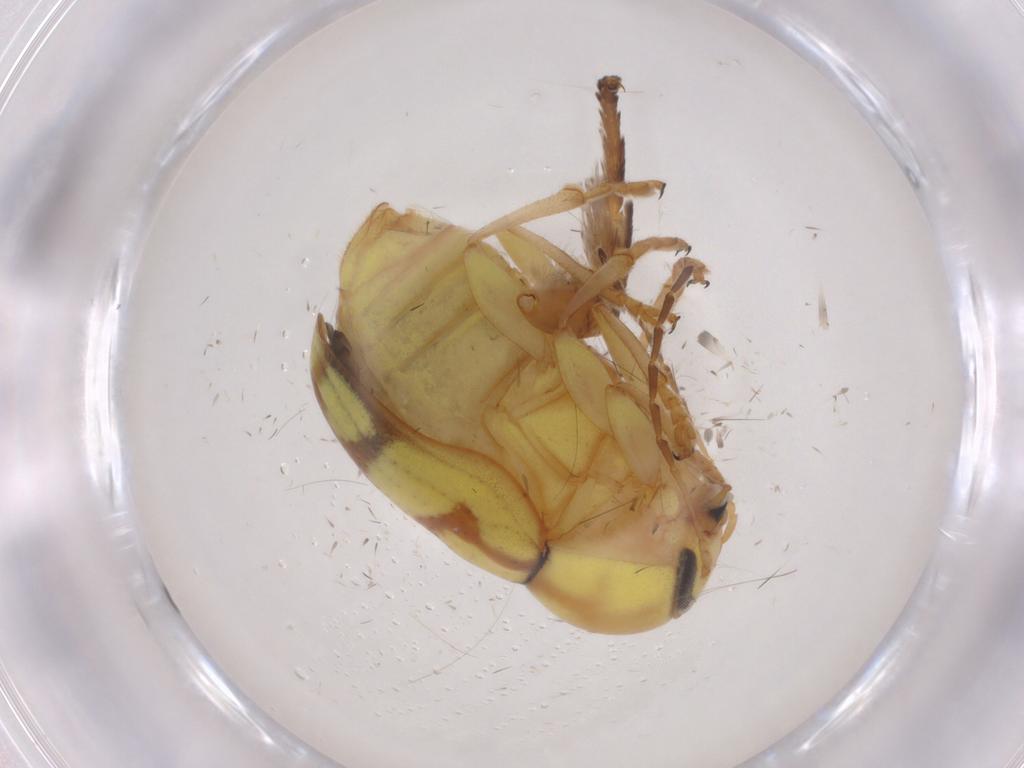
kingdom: Animalia
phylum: Arthropoda
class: Insecta
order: Coleoptera
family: Chrysomelidae
